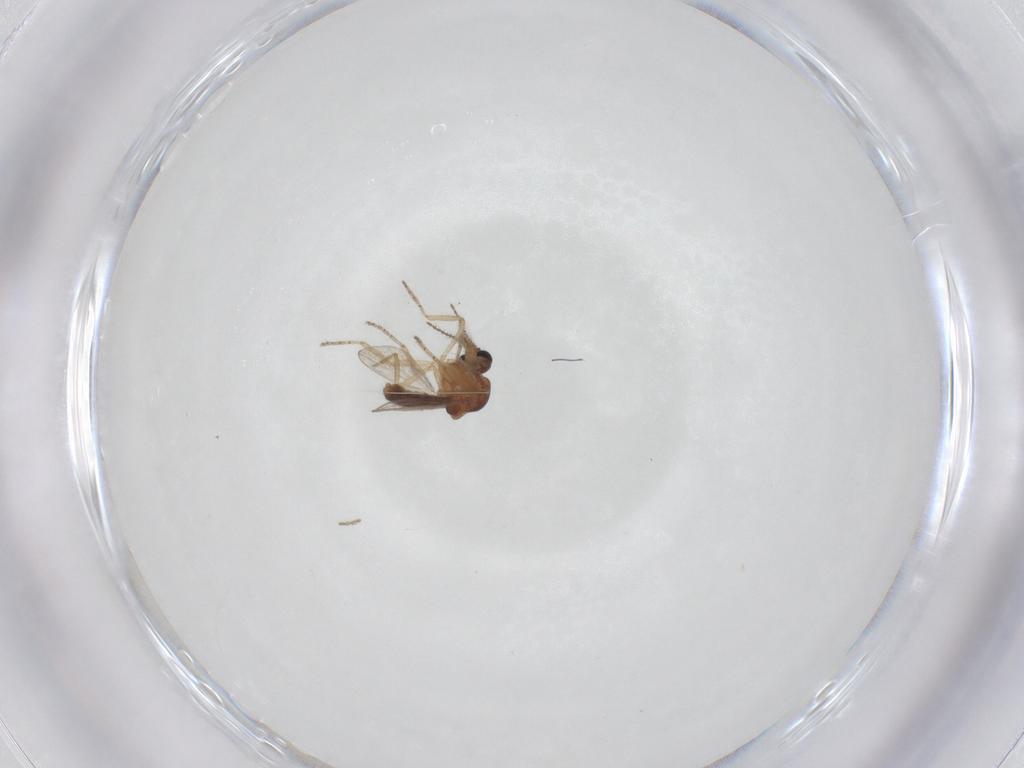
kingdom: Animalia
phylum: Arthropoda
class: Insecta
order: Diptera
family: Ceratopogonidae
